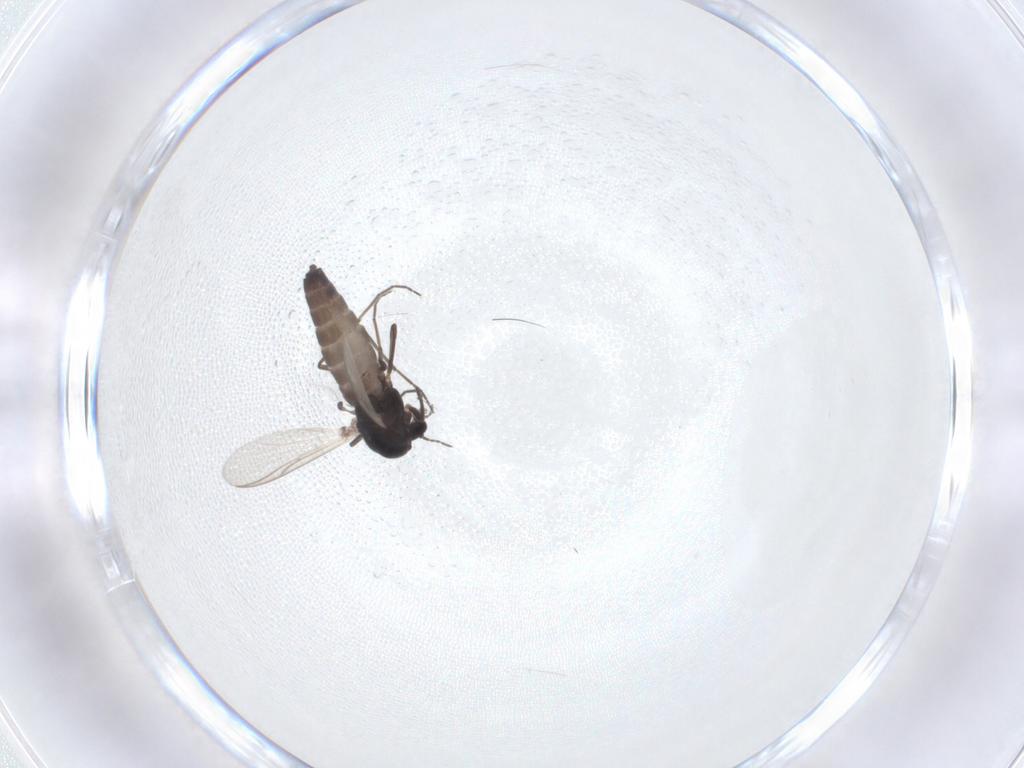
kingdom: Animalia
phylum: Arthropoda
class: Insecta
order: Diptera
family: Chironomidae
